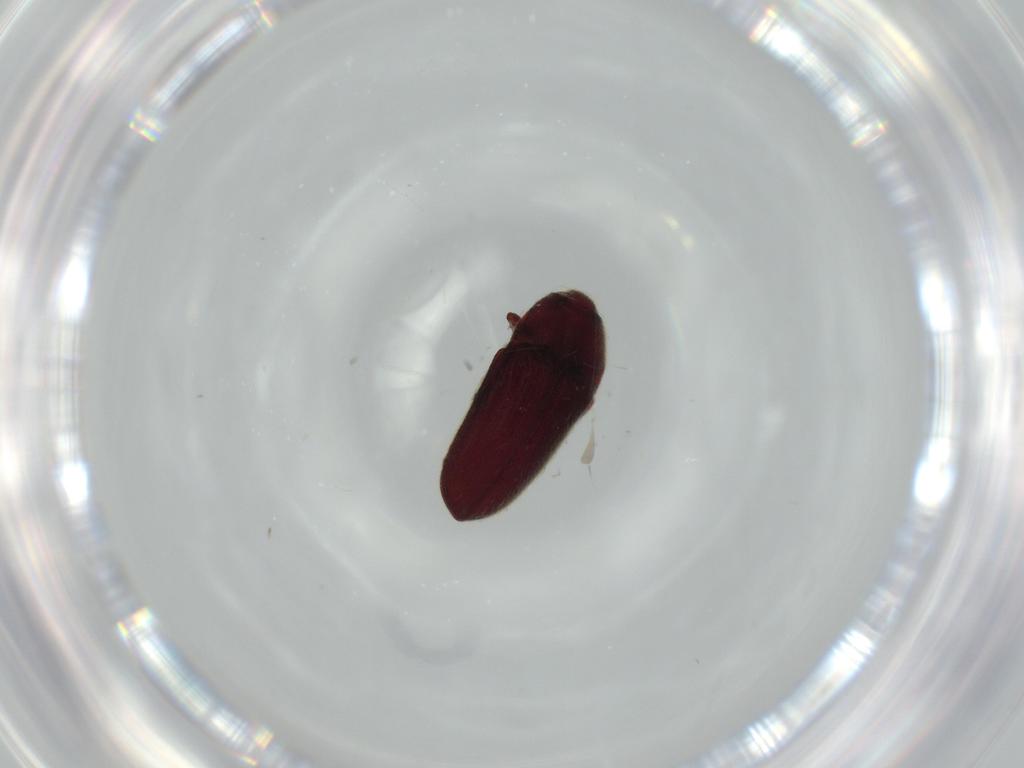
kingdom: Animalia
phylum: Arthropoda
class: Insecta
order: Coleoptera
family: Throscidae
